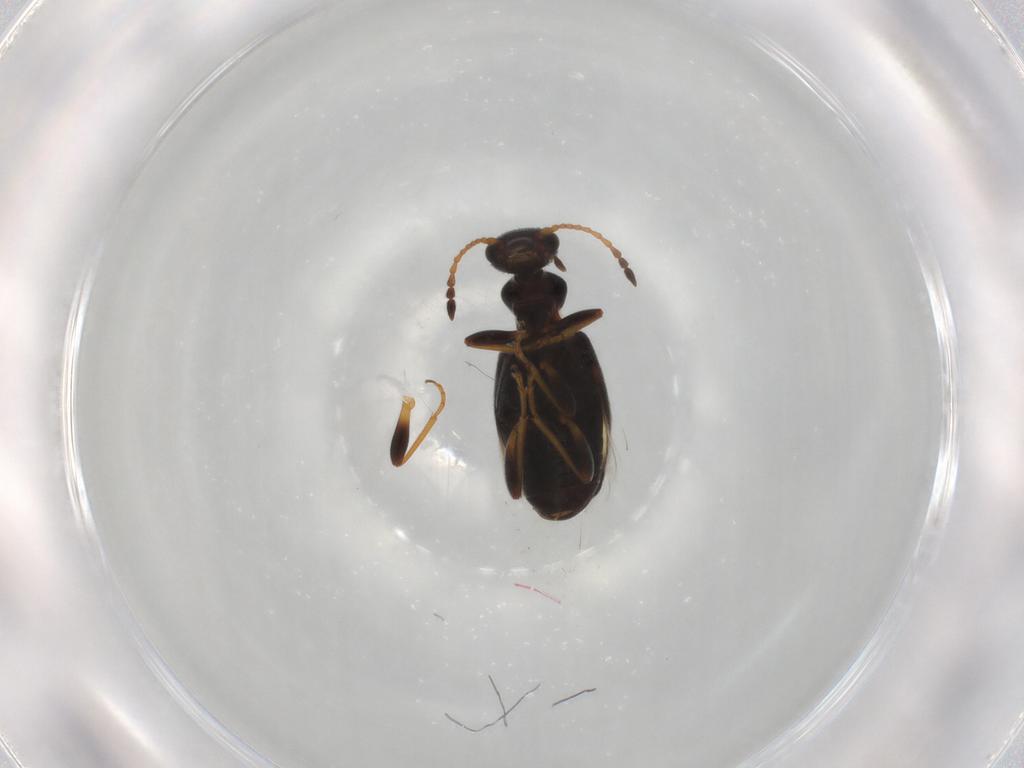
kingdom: Animalia
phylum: Arthropoda
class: Insecta
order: Coleoptera
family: Anthicidae
